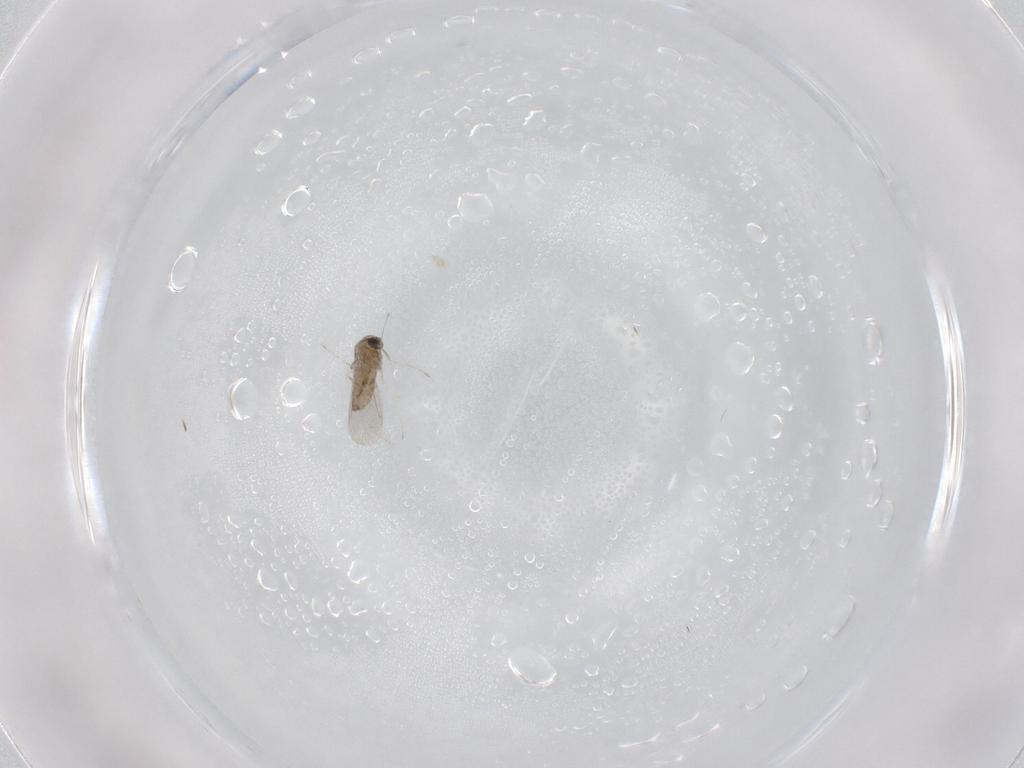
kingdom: Animalia
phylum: Arthropoda
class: Insecta
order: Diptera
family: Psychodidae
